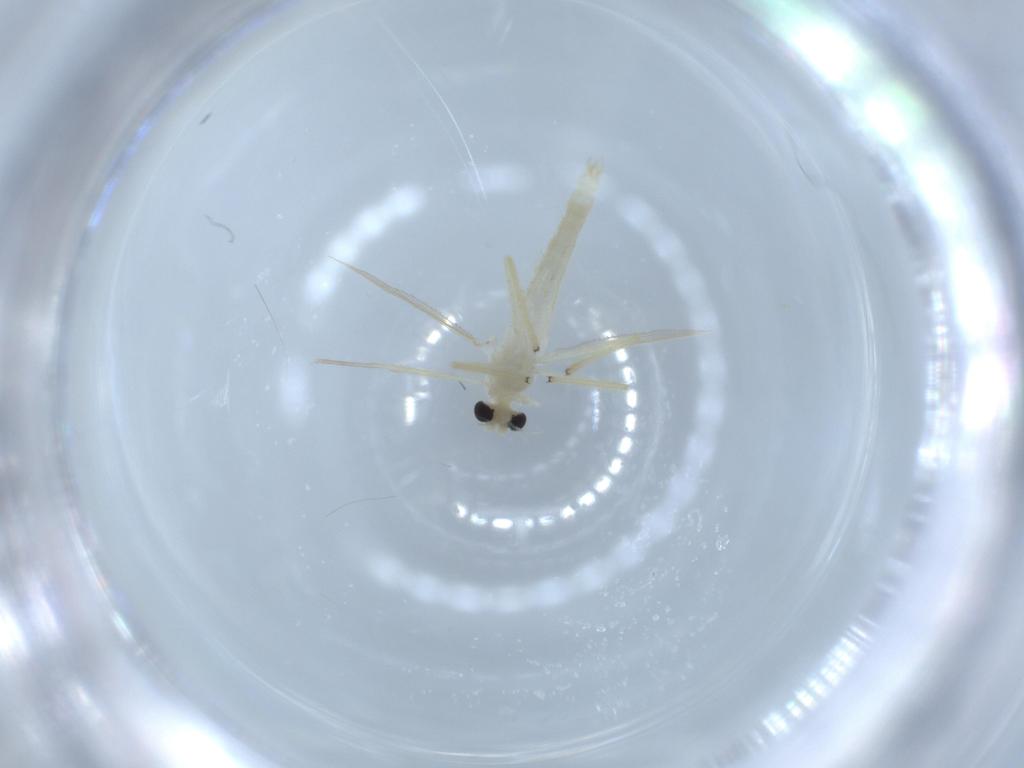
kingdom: Animalia
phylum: Arthropoda
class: Insecta
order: Diptera
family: Chironomidae
